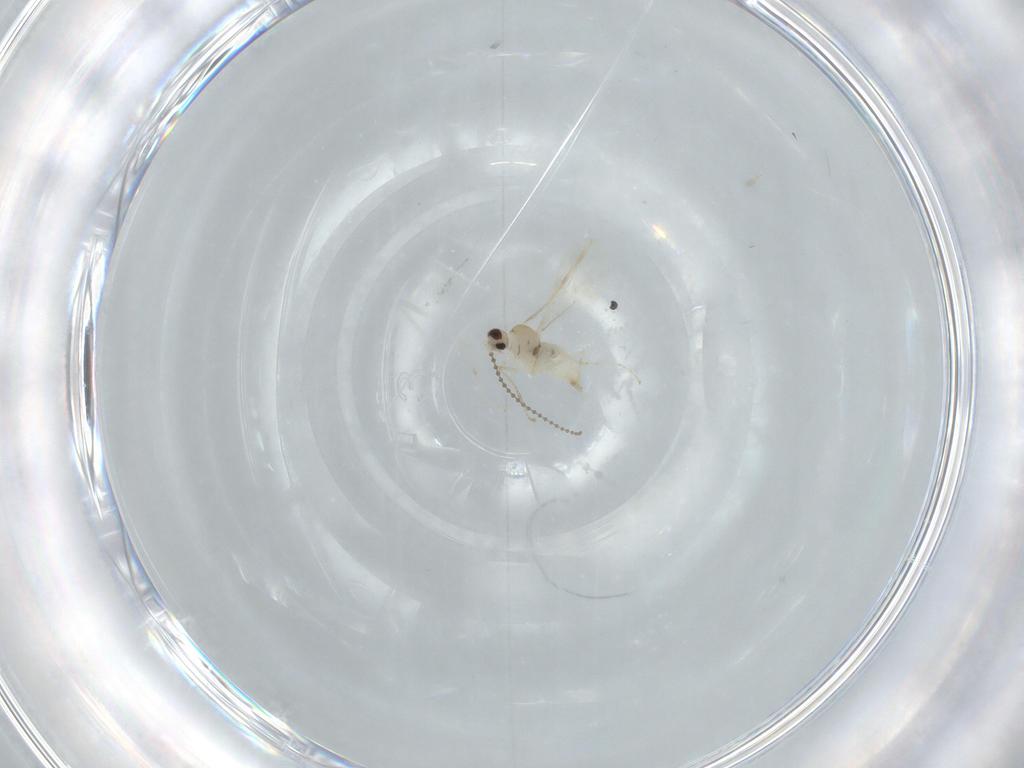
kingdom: Animalia
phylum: Arthropoda
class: Insecta
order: Diptera
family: Cecidomyiidae
